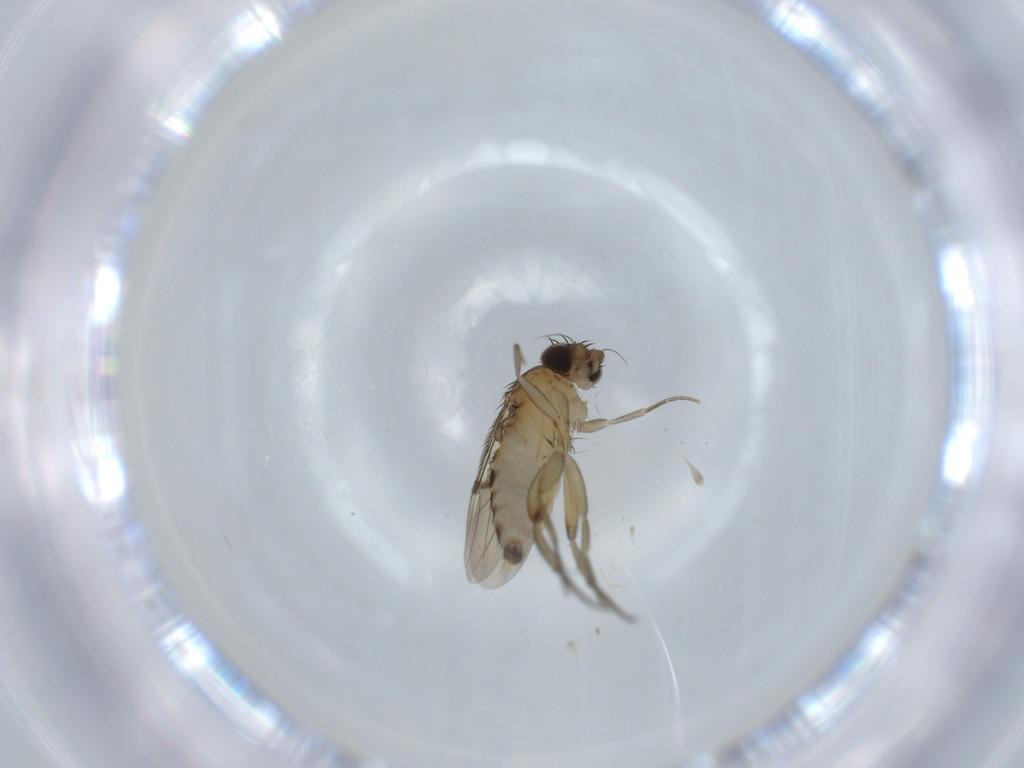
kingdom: Animalia
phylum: Arthropoda
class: Insecta
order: Diptera
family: Phoridae
